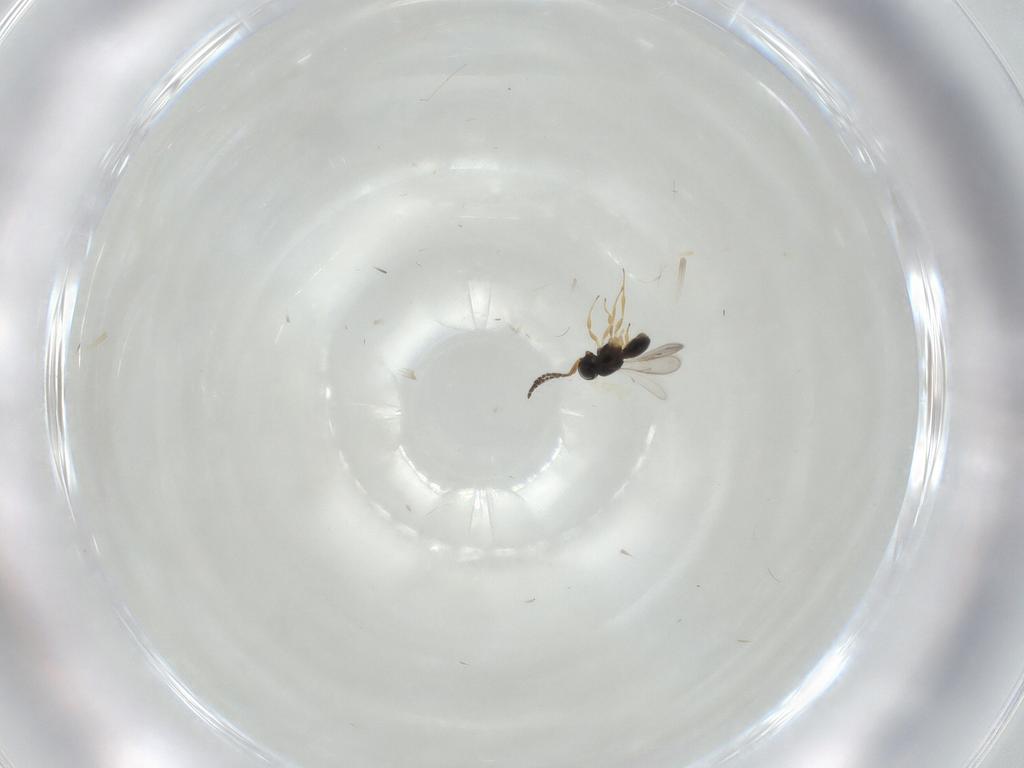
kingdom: Animalia
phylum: Arthropoda
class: Insecta
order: Hymenoptera
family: Scelionidae
